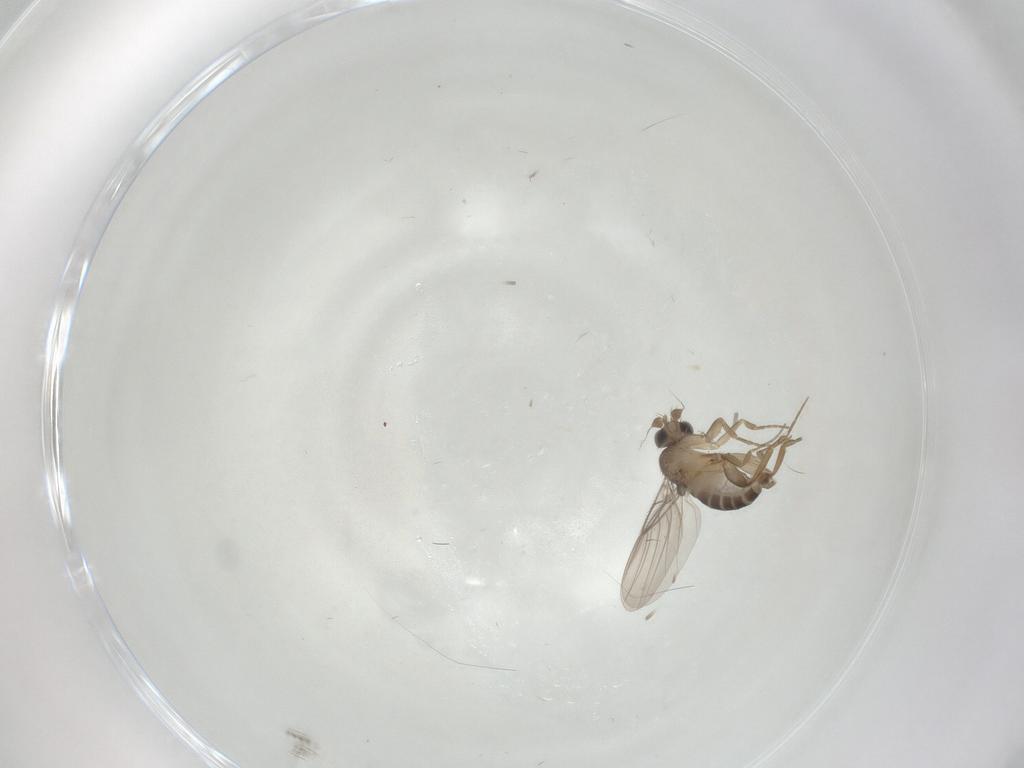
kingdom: Animalia
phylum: Arthropoda
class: Insecta
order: Diptera
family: Phoridae
